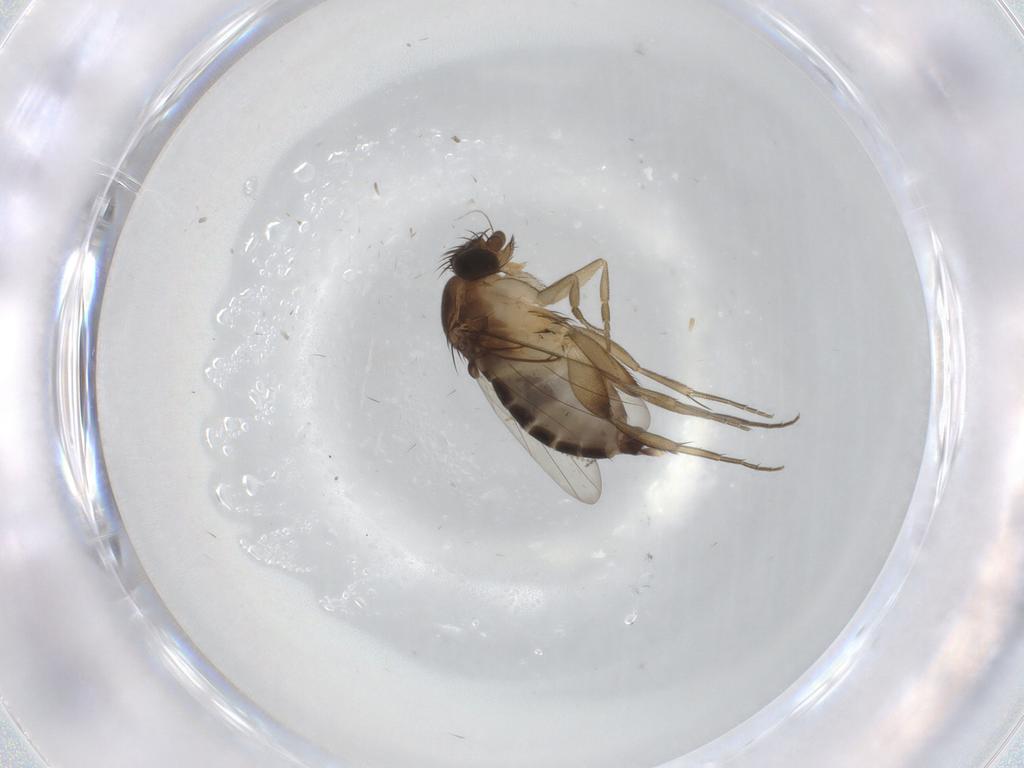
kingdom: Animalia
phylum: Arthropoda
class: Insecta
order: Diptera
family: Phoridae
